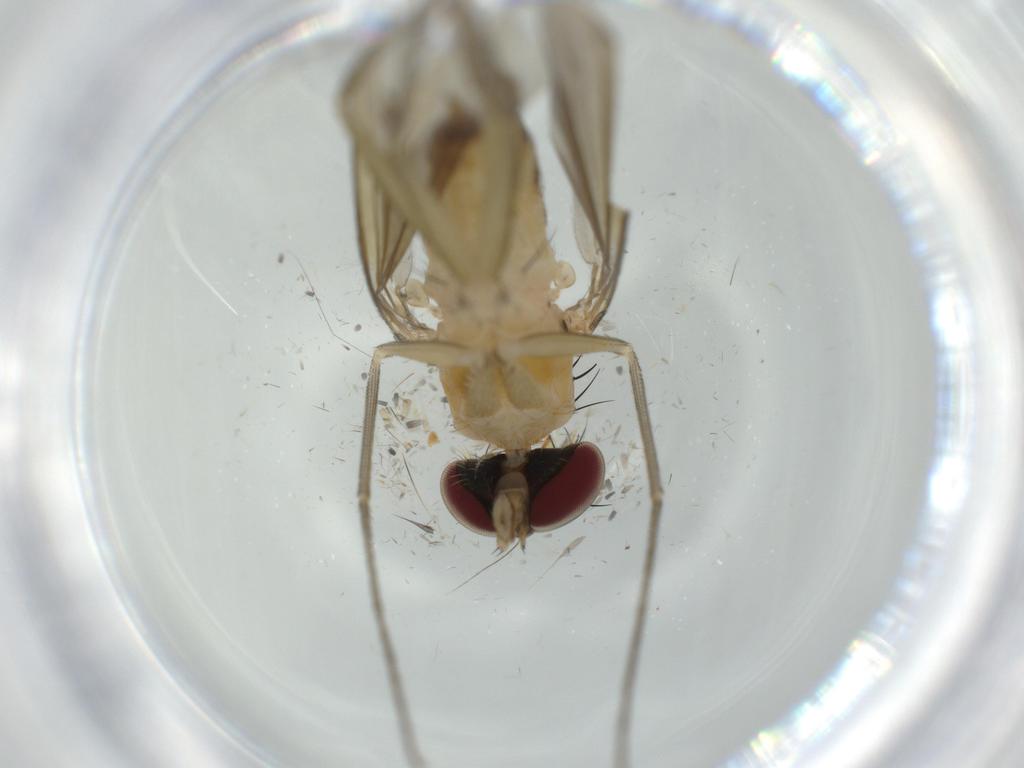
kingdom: Animalia
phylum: Arthropoda
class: Insecta
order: Diptera
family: Dolichopodidae
